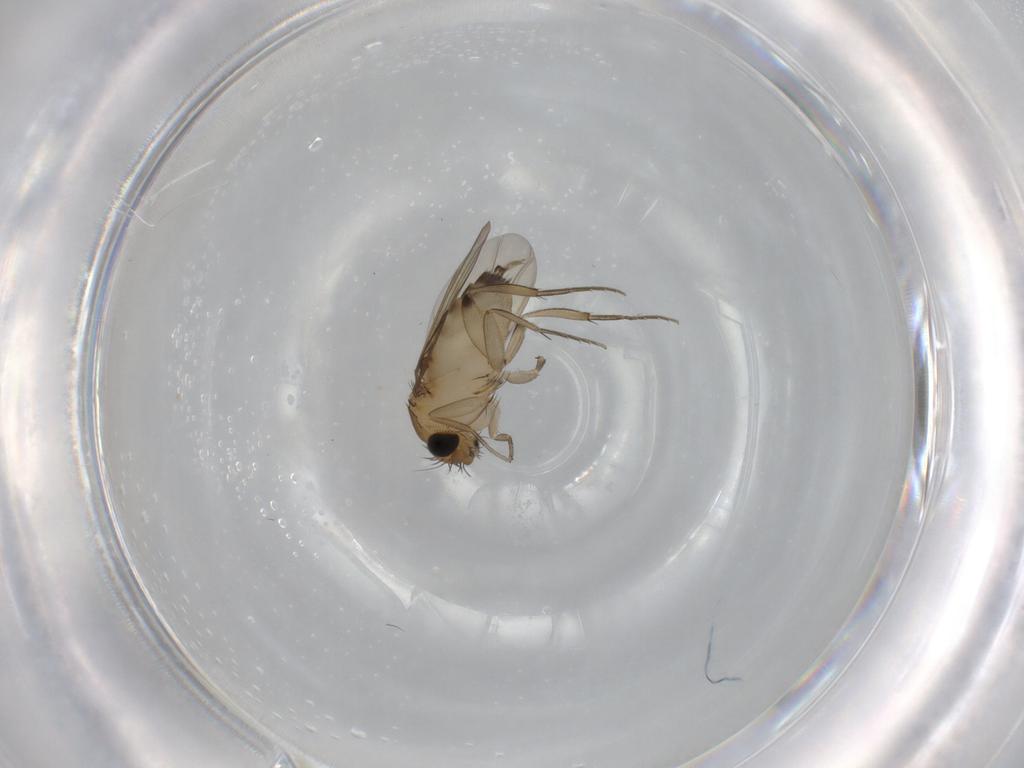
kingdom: Animalia
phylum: Arthropoda
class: Insecta
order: Diptera
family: Phoridae
